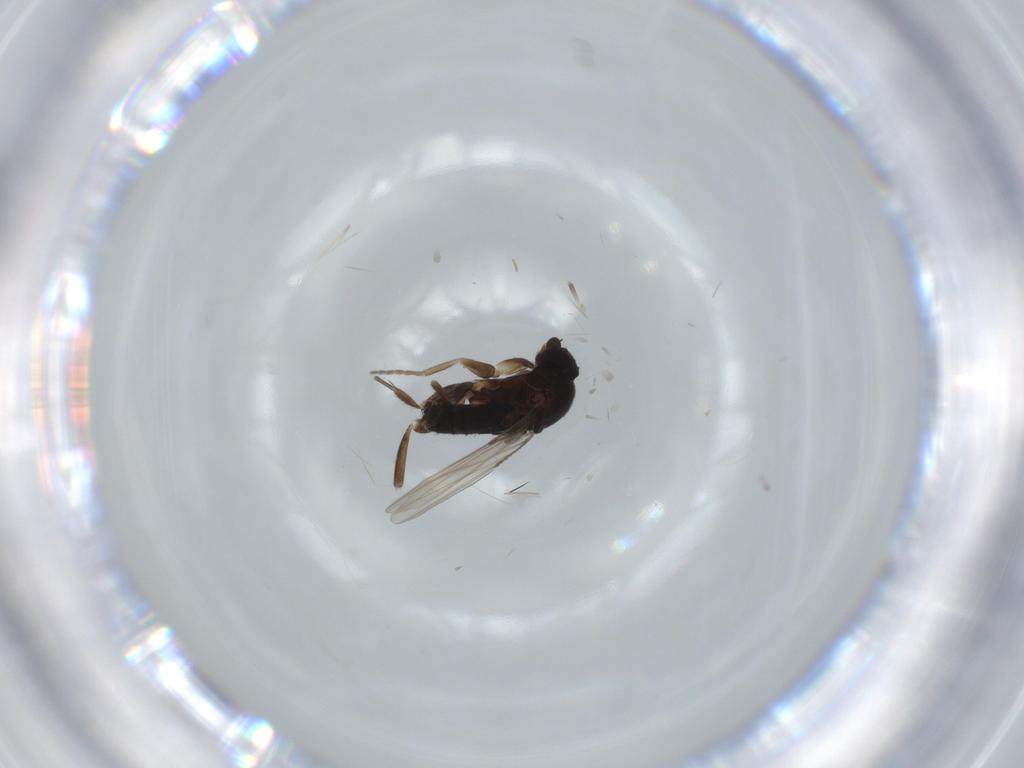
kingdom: Animalia
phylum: Arthropoda
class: Insecta
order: Diptera
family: Phoridae
